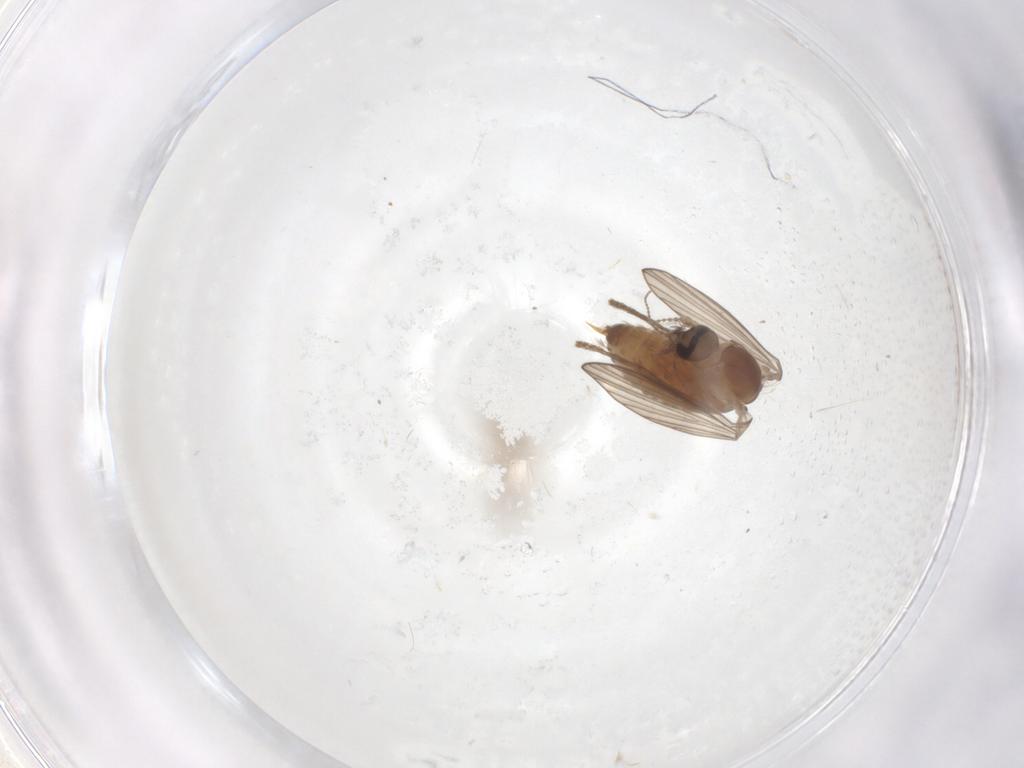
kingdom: Animalia
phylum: Arthropoda
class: Insecta
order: Diptera
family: Psychodidae
